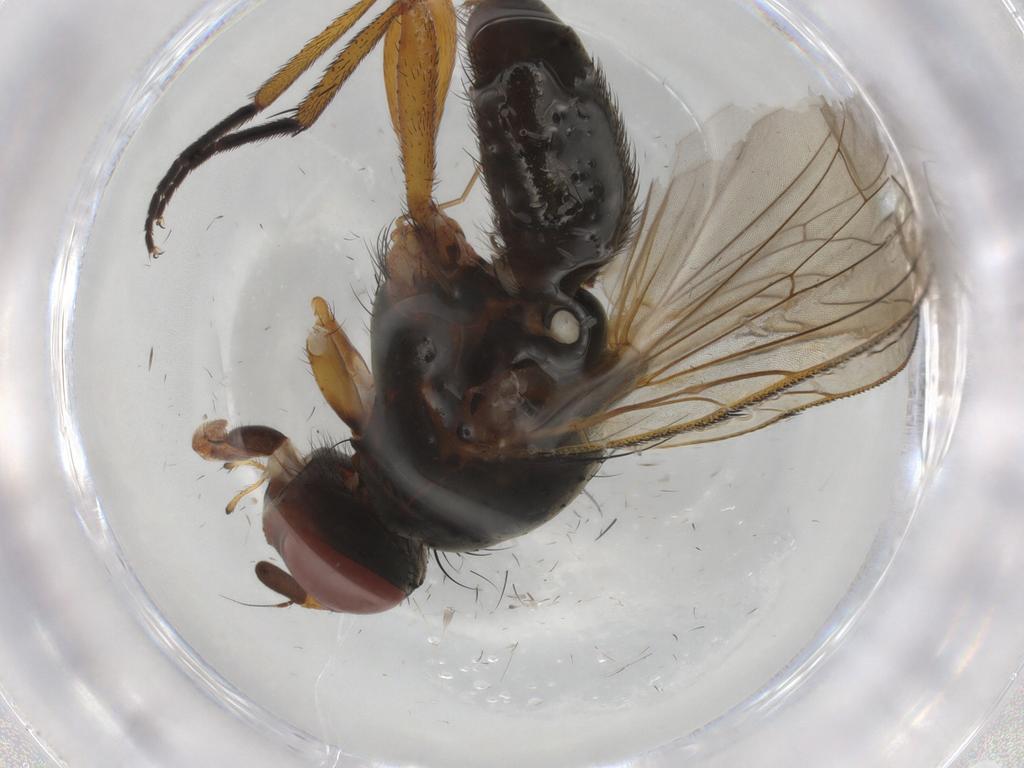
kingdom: Animalia
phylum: Arthropoda
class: Insecta
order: Diptera
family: Anthomyiidae
